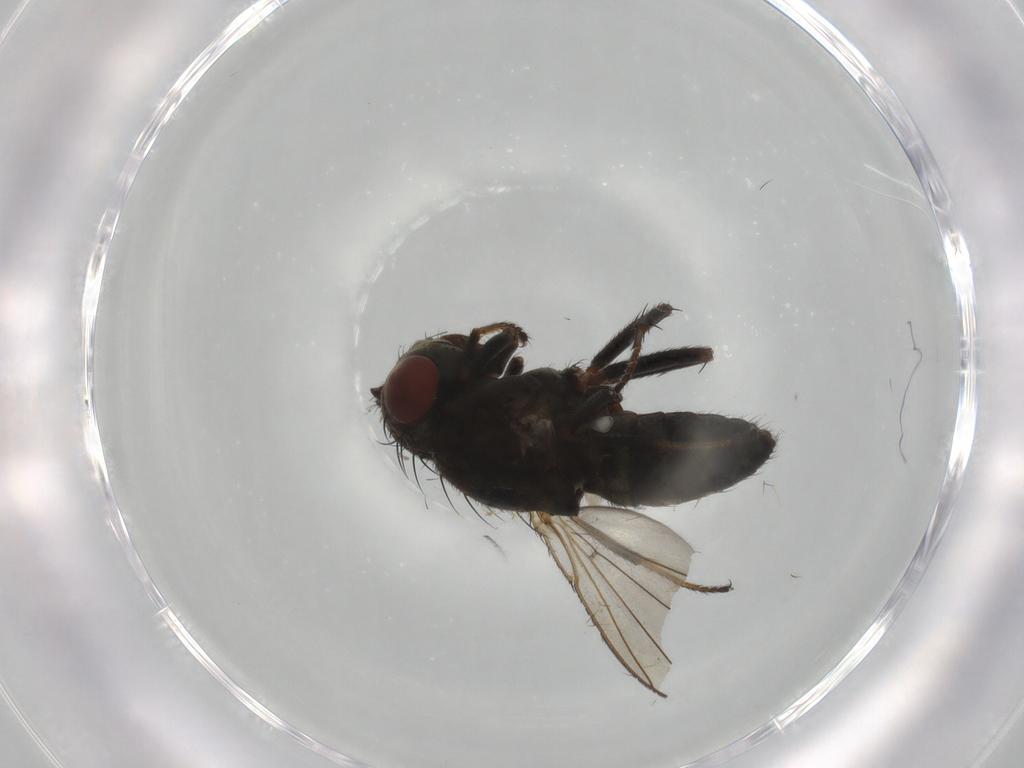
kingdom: Animalia
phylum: Arthropoda
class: Insecta
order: Diptera
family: Ephydridae
